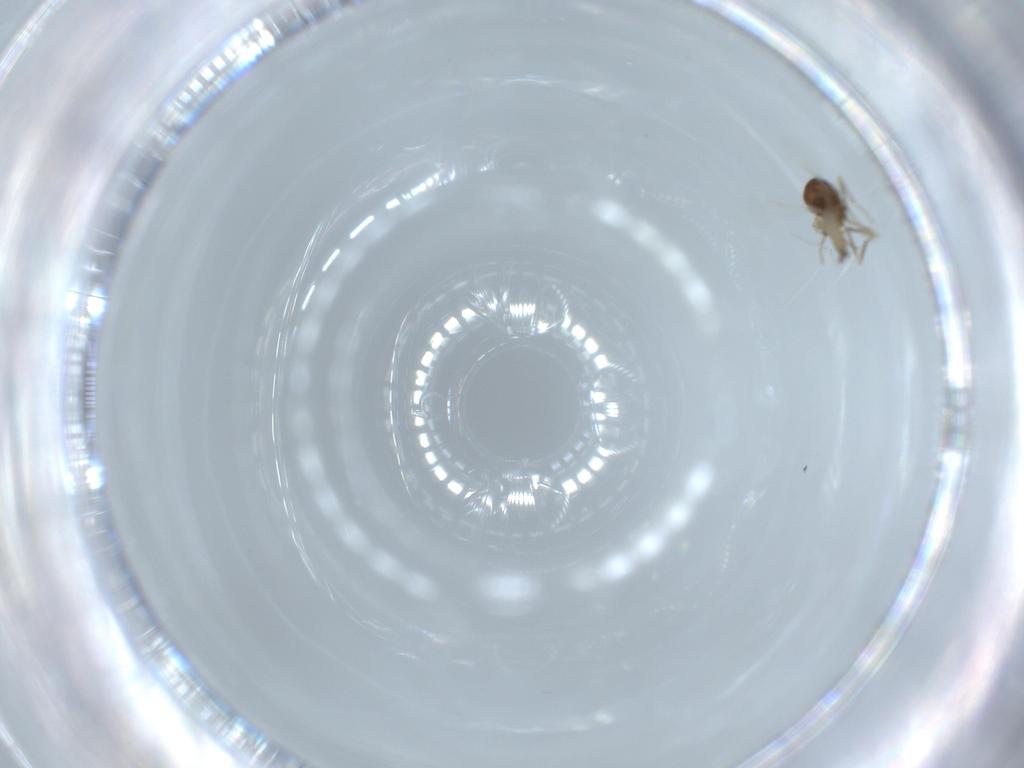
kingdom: Animalia
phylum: Arthropoda
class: Insecta
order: Diptera
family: Ceratopogonidae
